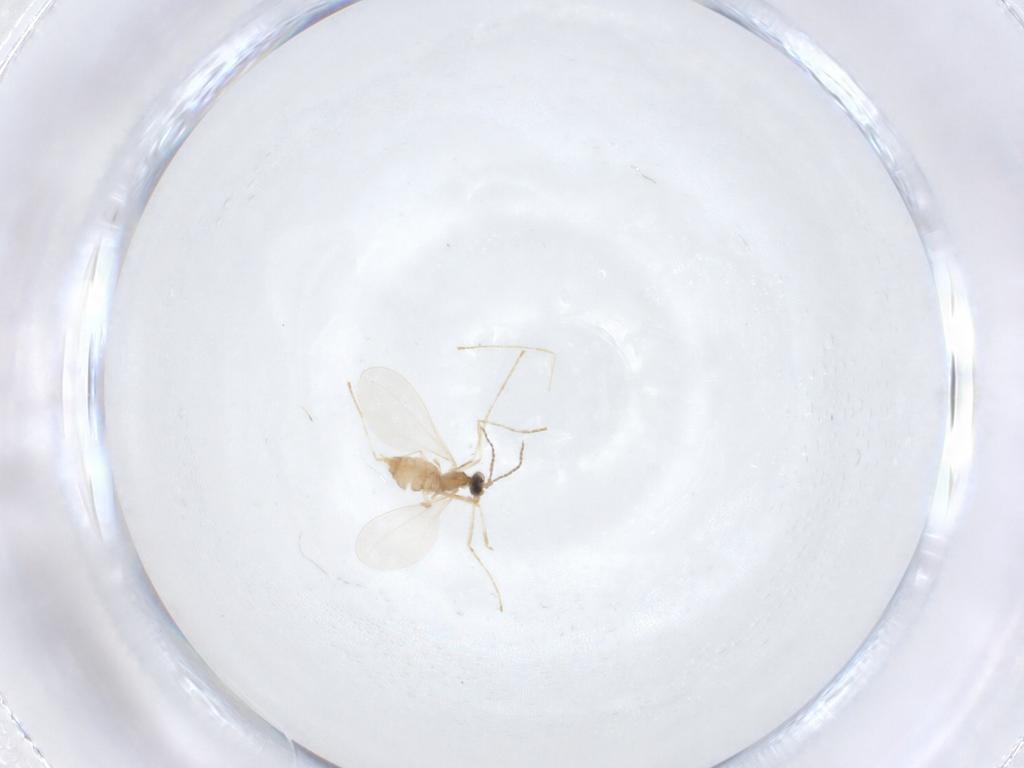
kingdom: Animalia
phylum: Arthropoda
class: Insecta
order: Diptera
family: Cecidomyiidae
